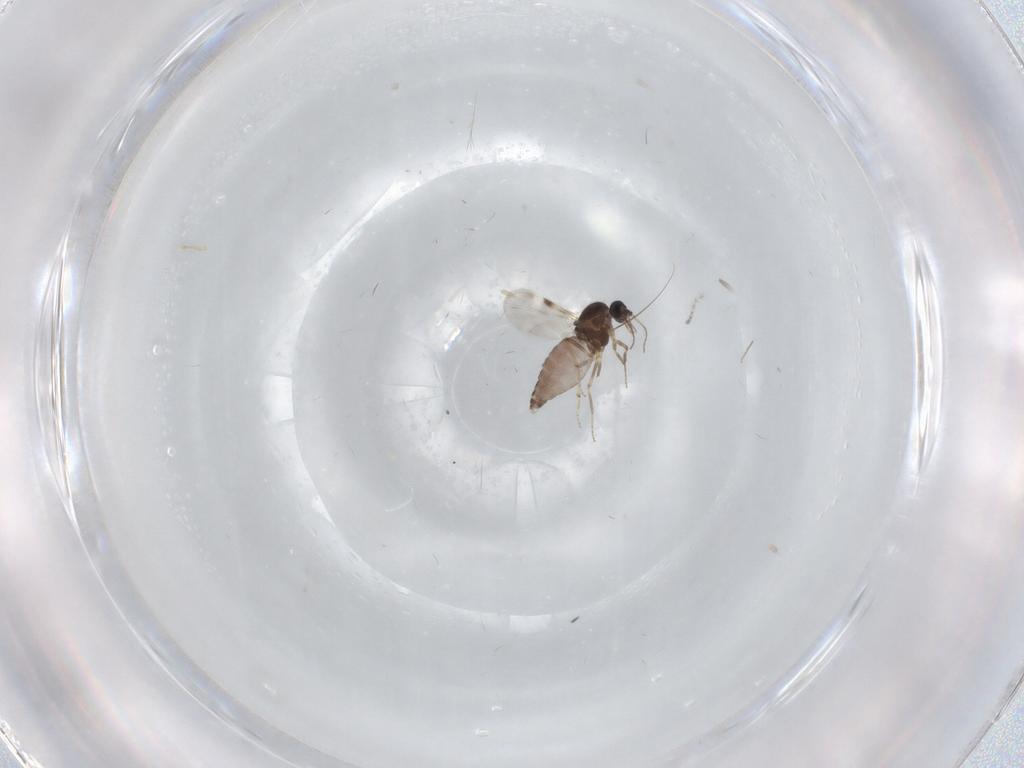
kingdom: Animalia
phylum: Arthropoda
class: Insecta
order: Diptera
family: Cecidomyiidae
